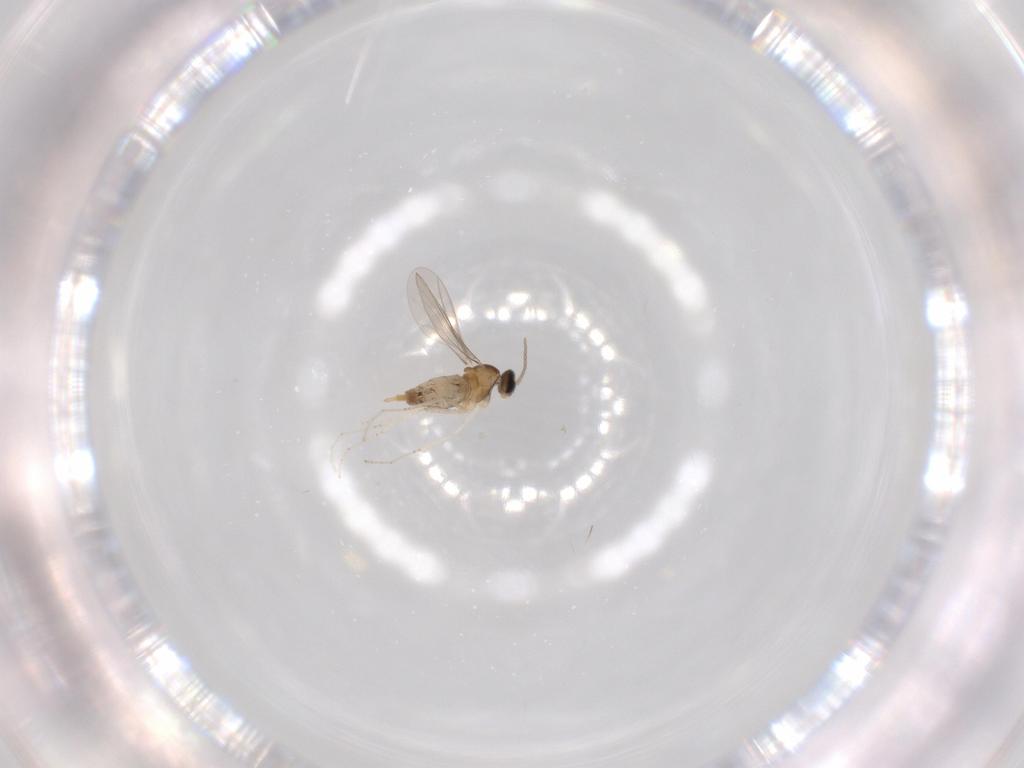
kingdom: Animalia
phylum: Arthropoda
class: Insecta
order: Diptera
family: Cecidomyiidae
